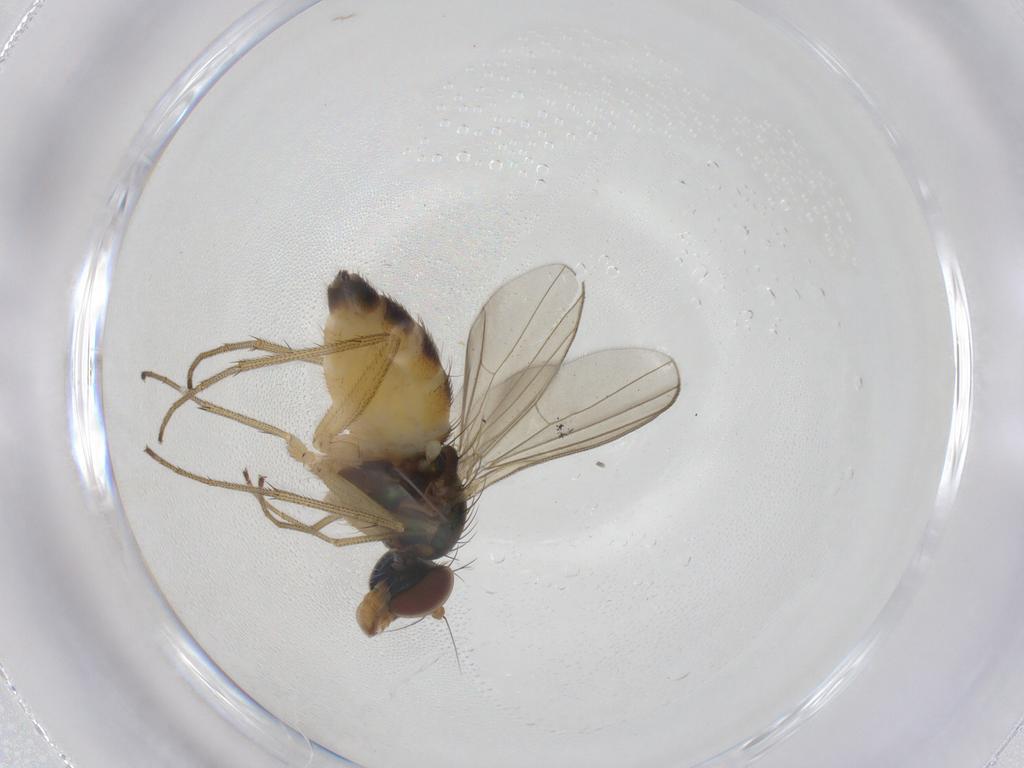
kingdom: Animalia
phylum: Arthropoda
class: Insecta
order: Diptera
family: Dolichopodidae
